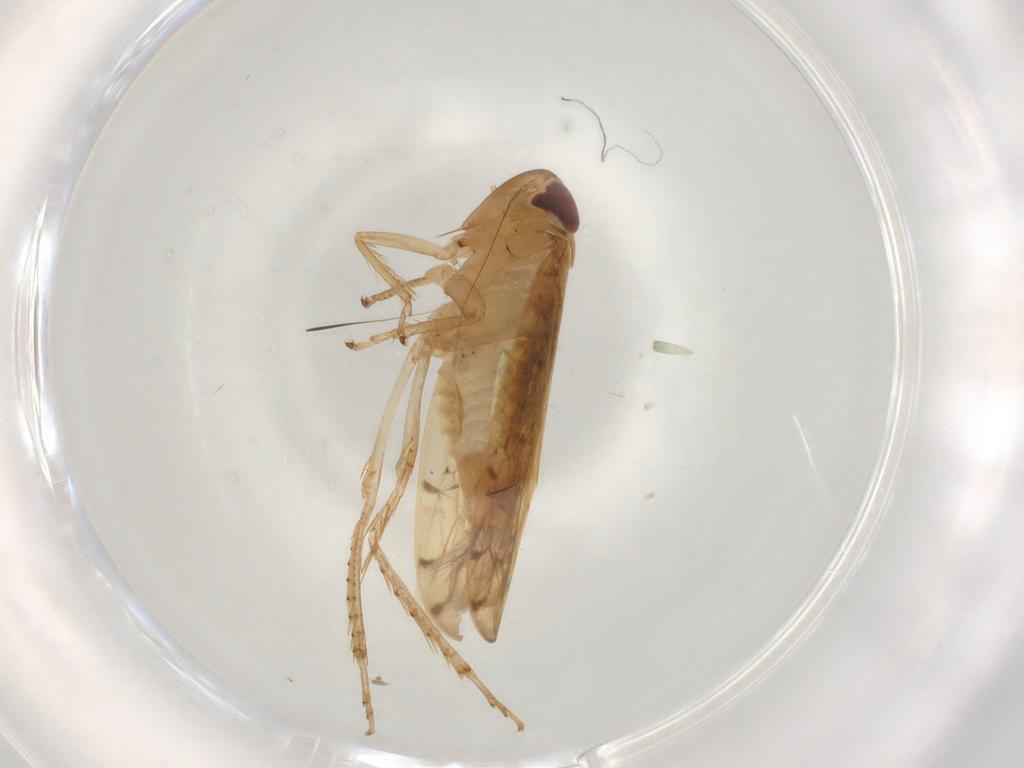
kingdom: Animalia
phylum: Arthropoda
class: Insecta
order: Hemiptera
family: Cicadellidae
